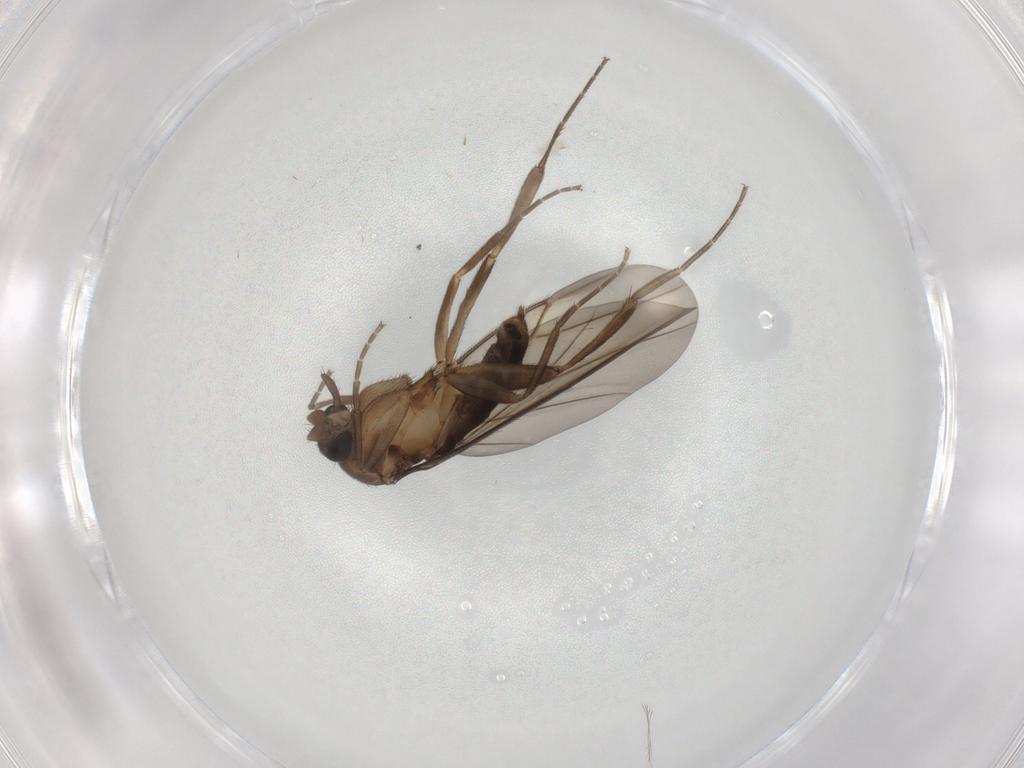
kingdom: Animalia
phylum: Arthropoda
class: Insecta
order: Diptera
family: Phoridae
